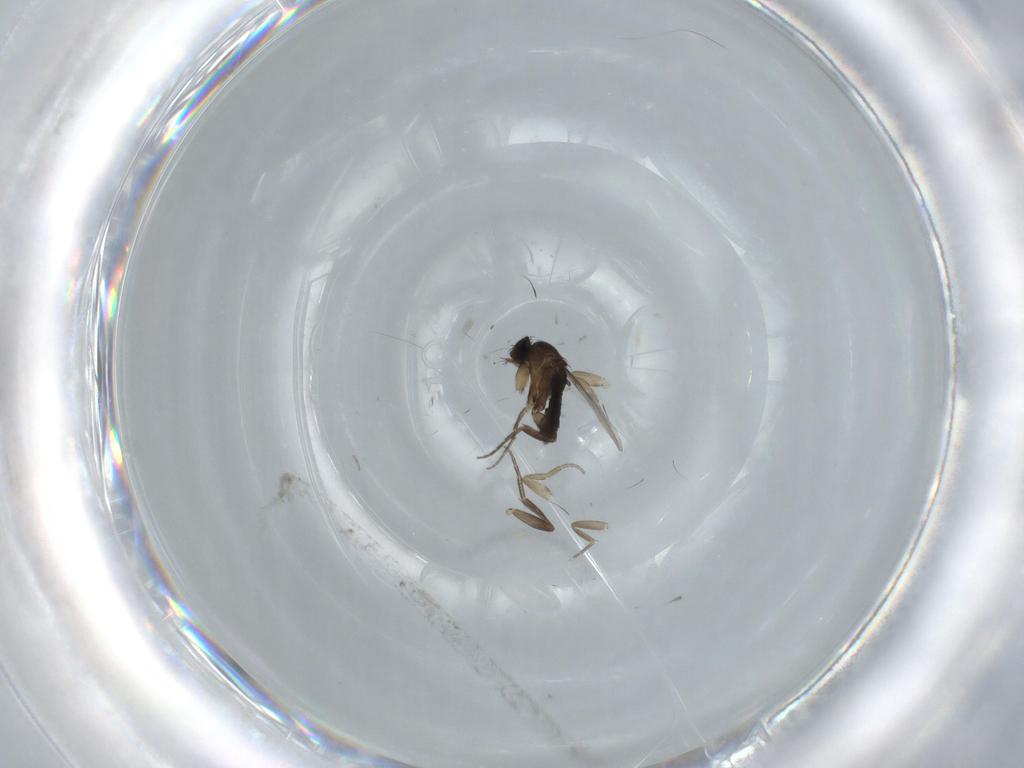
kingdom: Animalia
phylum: Arthropoda
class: Insecta
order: Diptera
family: Phoridae
